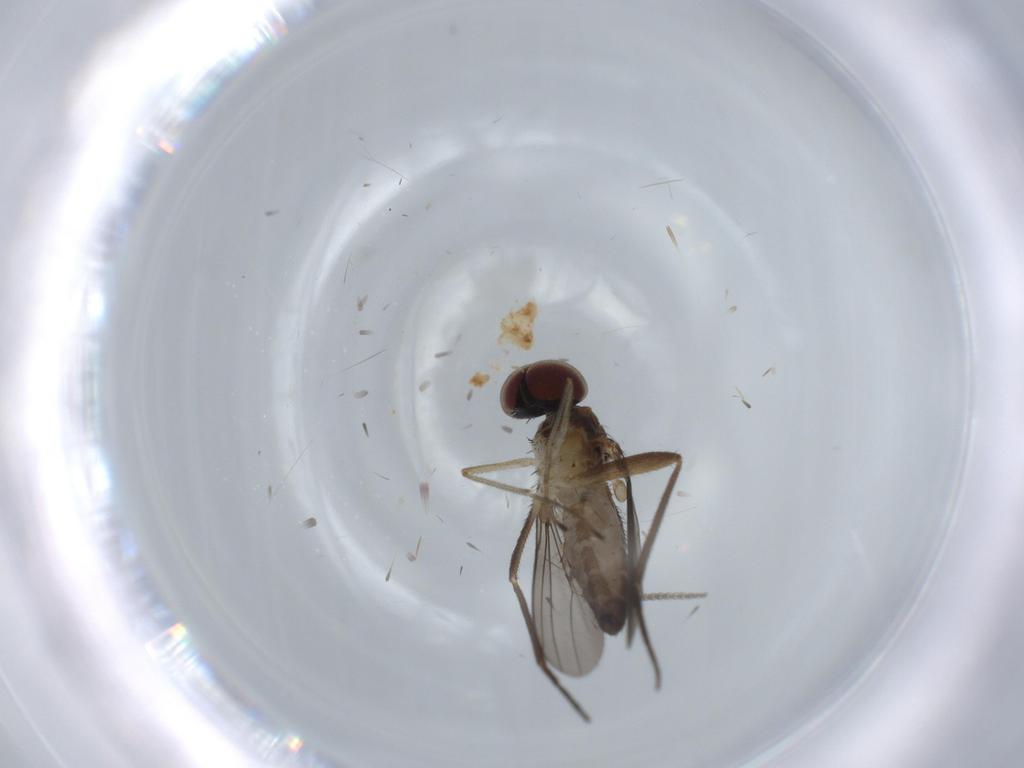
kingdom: Animalia
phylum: Arthropoda
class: Insecta
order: Diptera
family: Dolichopodidae
